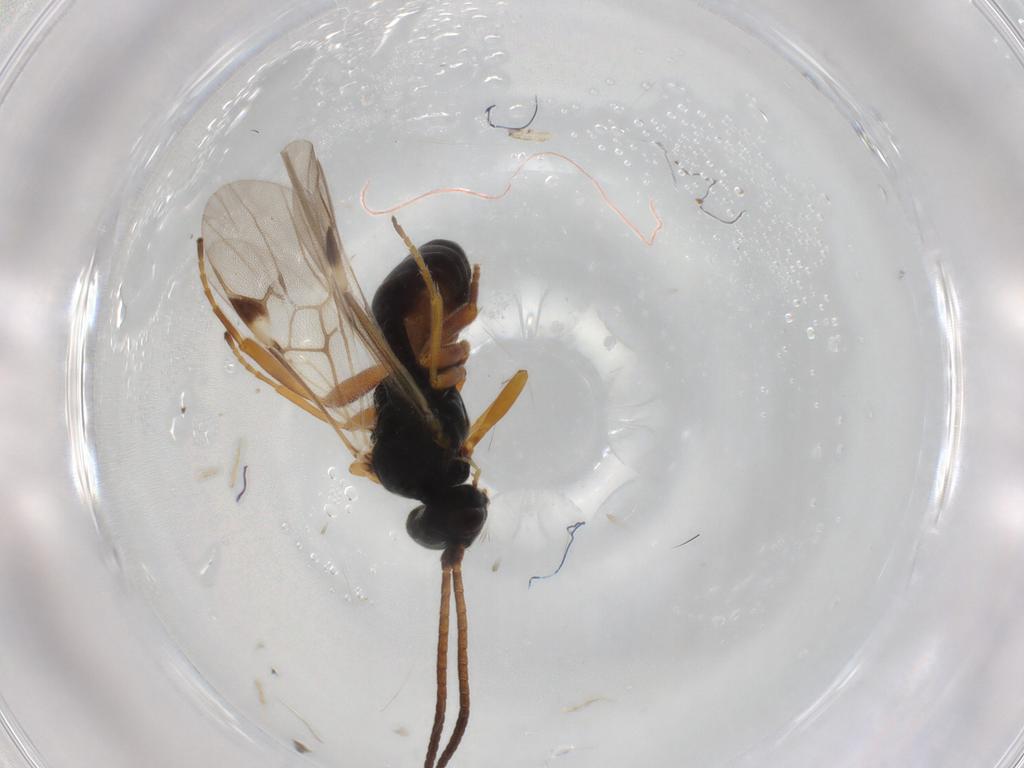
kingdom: Animalia
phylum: Arthropoda
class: Insecta
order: Hymenoptera
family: Braconidae
